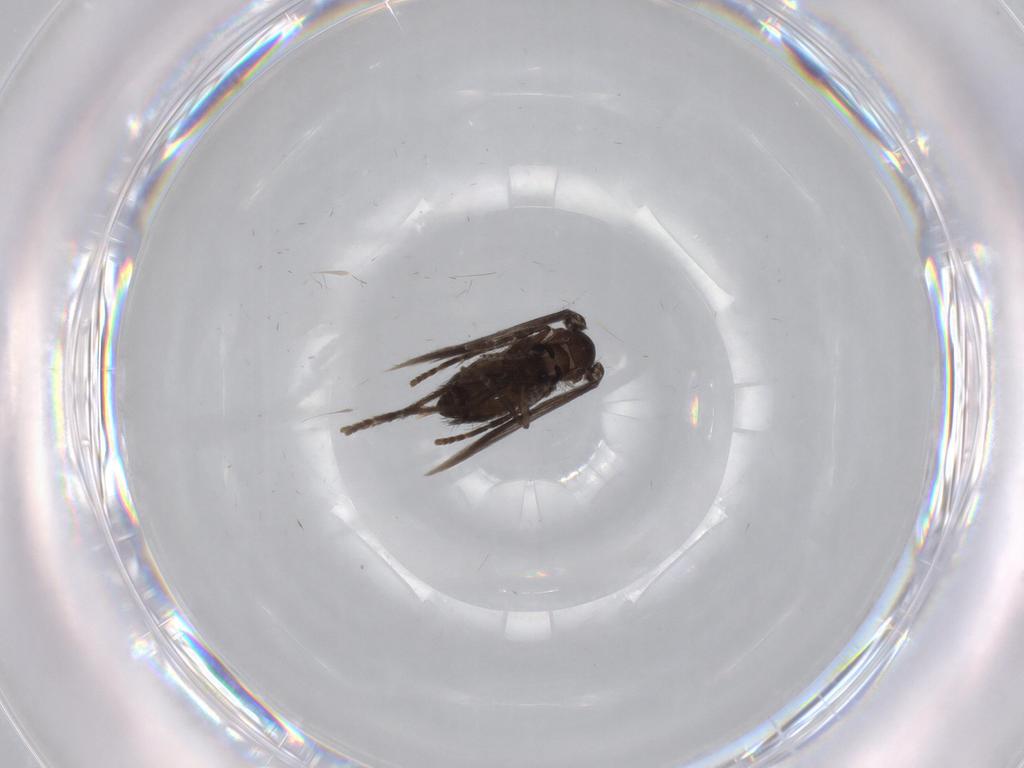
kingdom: Animalia
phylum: Arthropoda
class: Insecta
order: Diptera
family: Psychodidae
